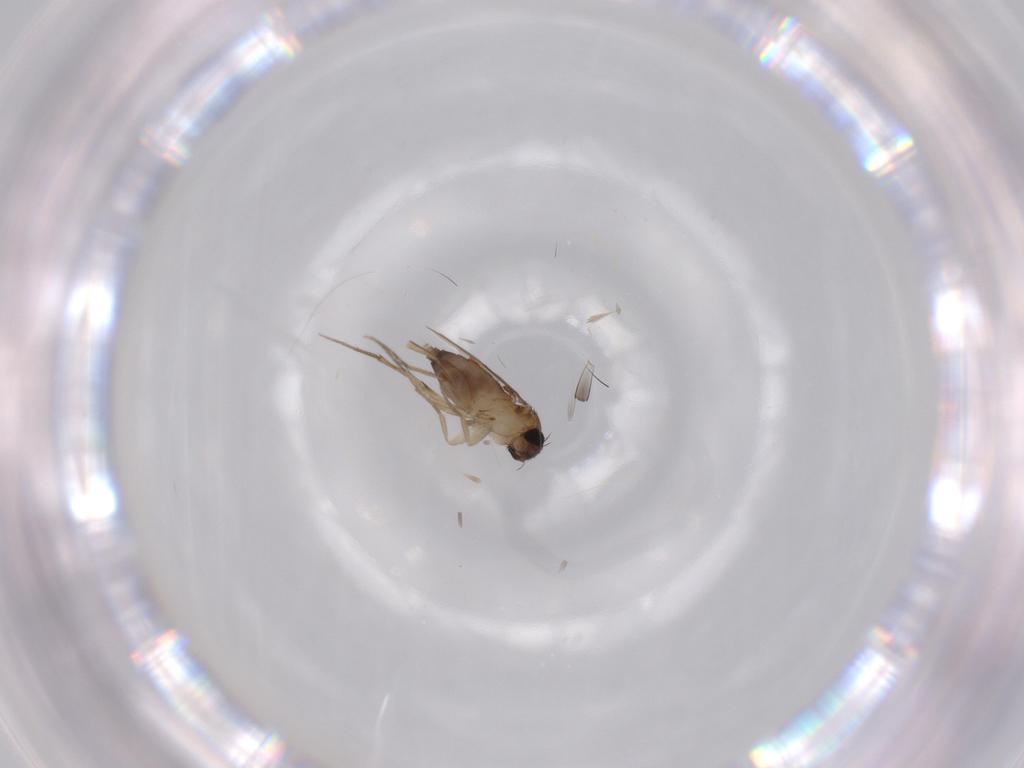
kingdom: Animalia
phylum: Arthropoda
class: Insecta
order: Diptera
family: Phoridae
